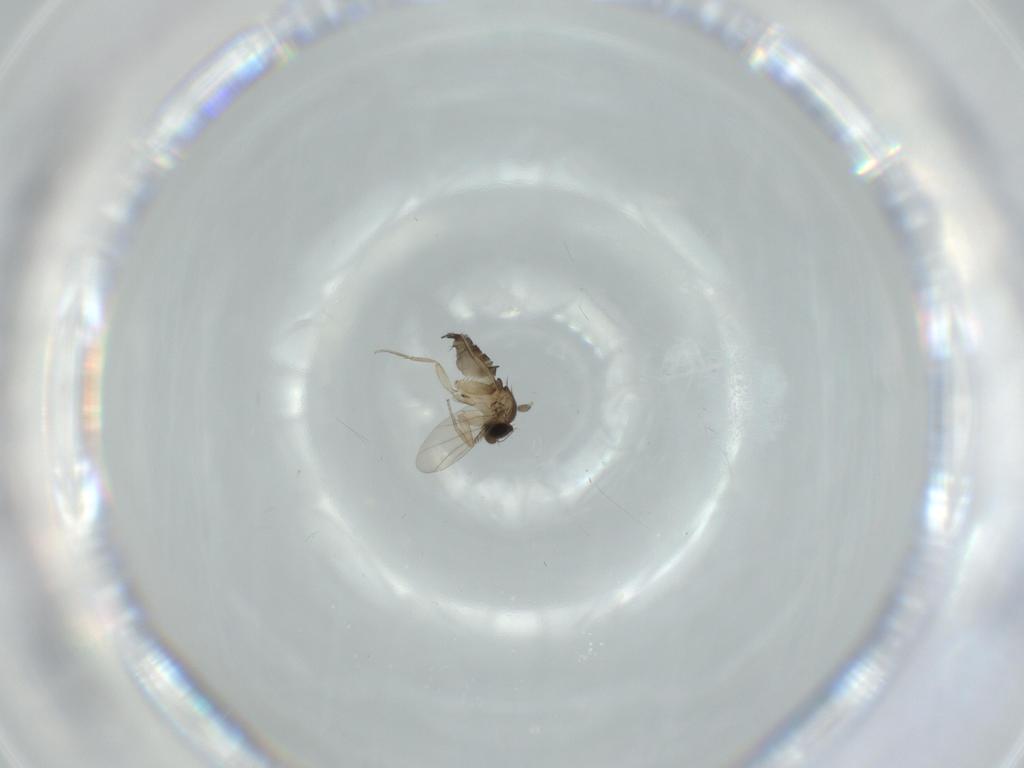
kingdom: Animalia
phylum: Arthropoda
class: Insecta
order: Diptera
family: Phoridae
